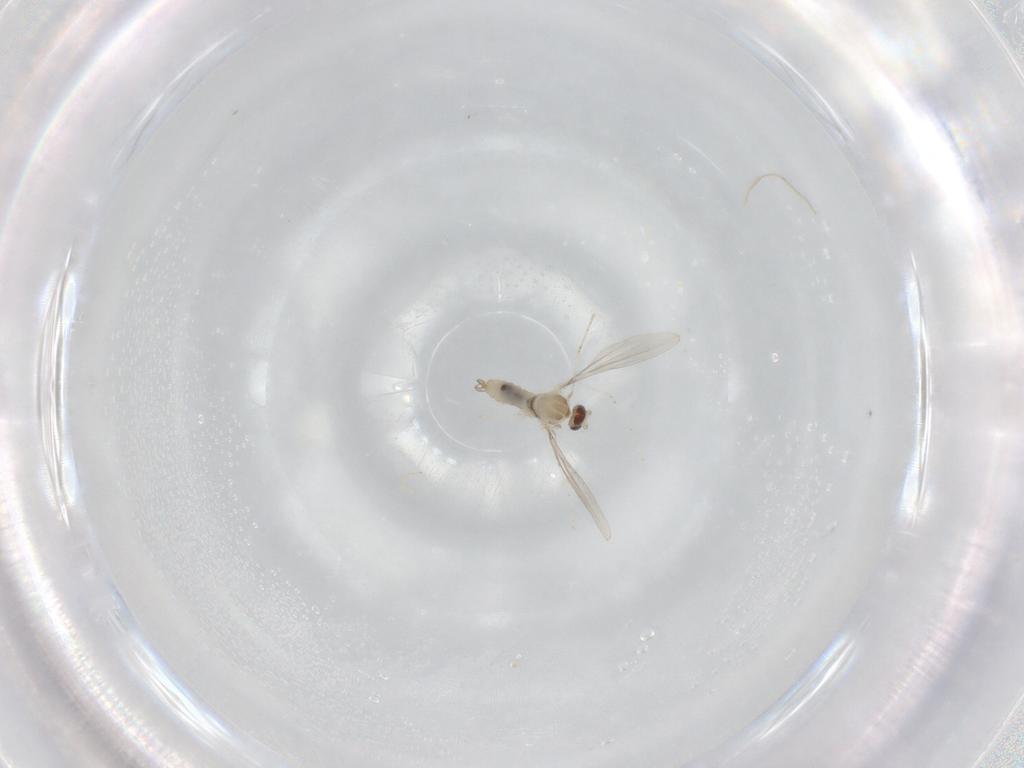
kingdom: Animalia
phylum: Arthropoda
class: Insecta
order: Diptera
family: Cecidomyiidae
